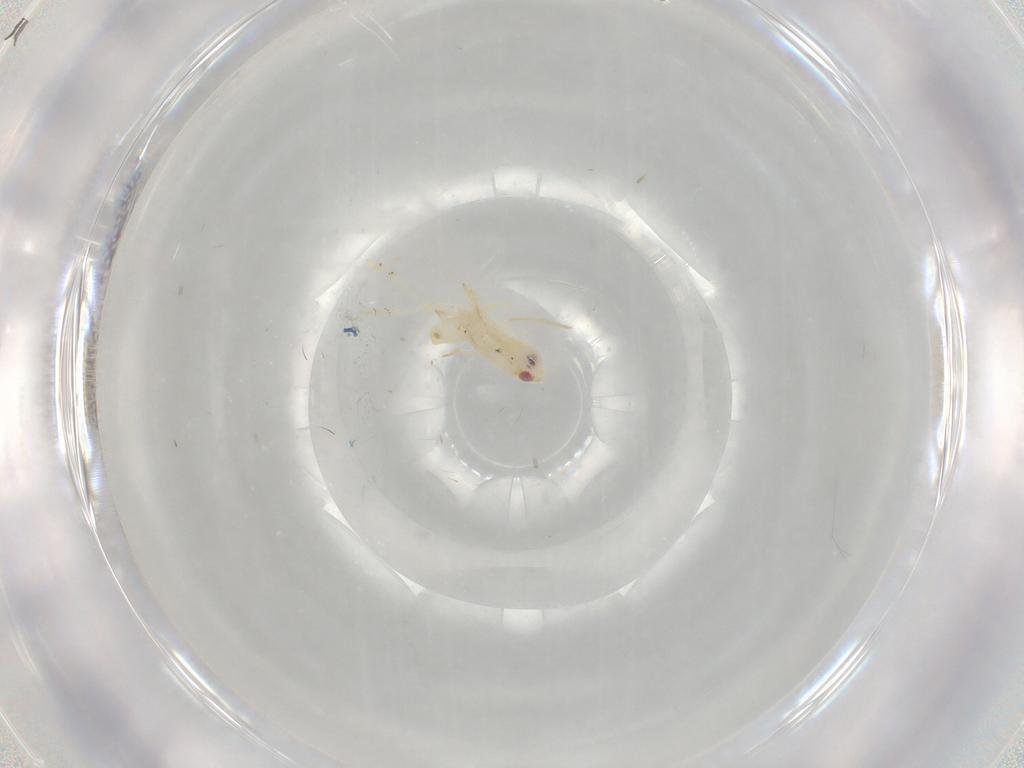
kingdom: Animalia
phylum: Arthropoda
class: Insecta
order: Hemiptera
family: Flatidae
